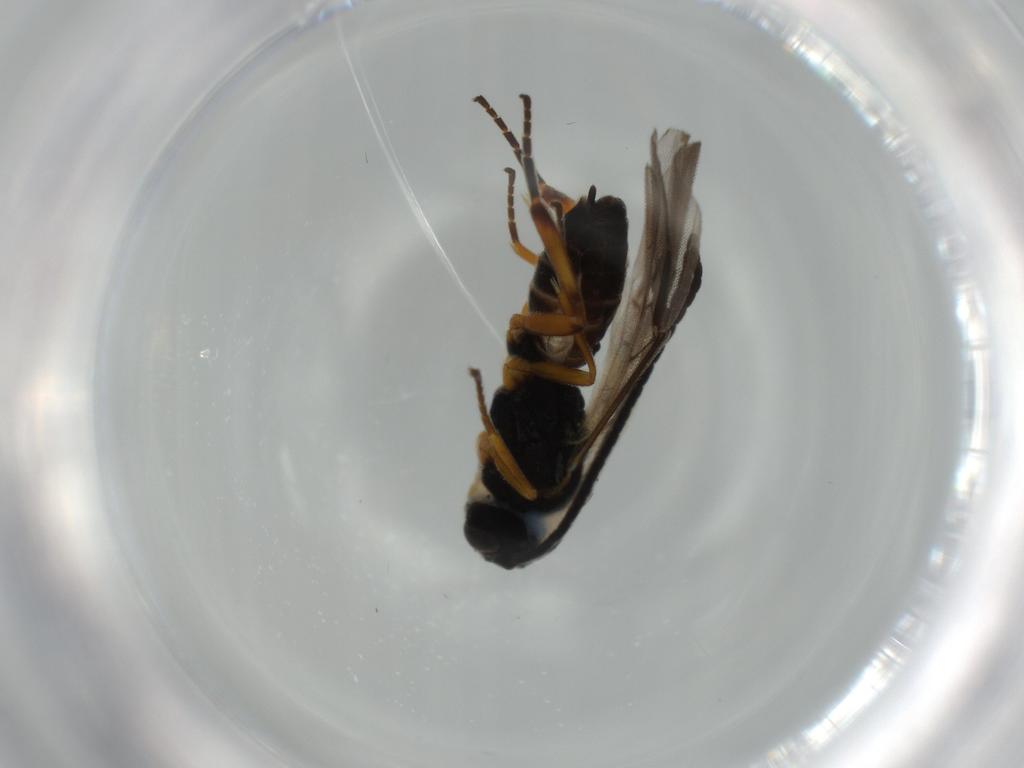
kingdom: Animalia
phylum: Arthropoda
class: Insecta
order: Hymenoptera
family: Braconidae
